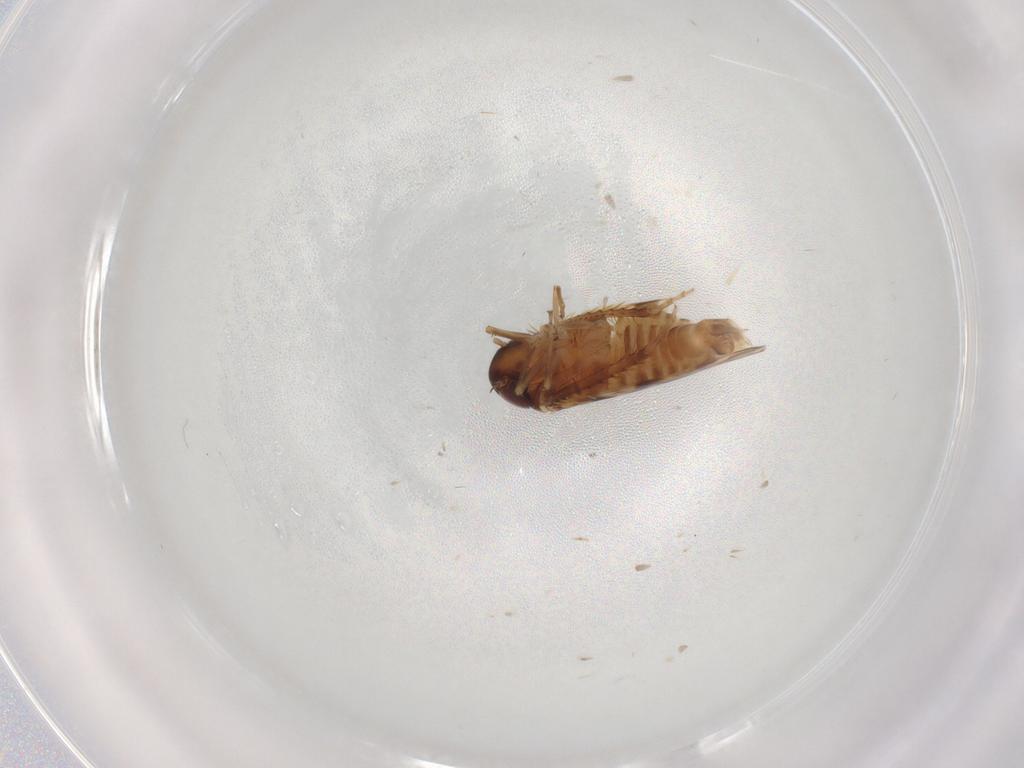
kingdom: Animalia
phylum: Arthropoda
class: Insecta
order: Hemiptera
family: Cicadellidae
